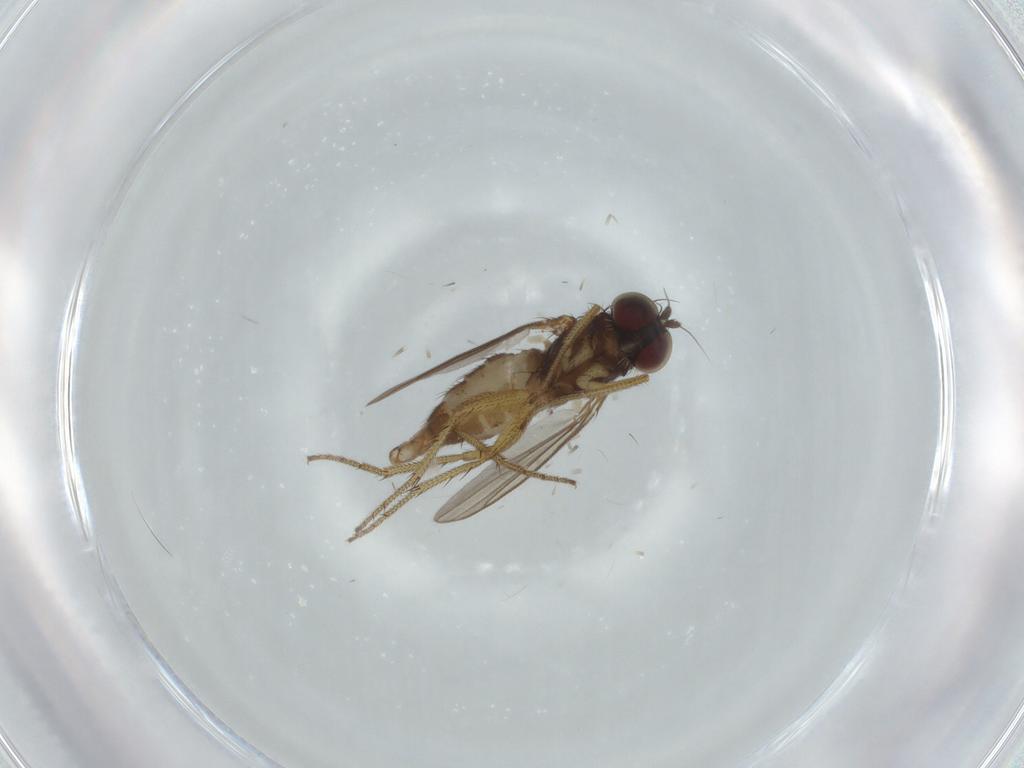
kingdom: Animalia
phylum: Arthropoda
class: Insecta
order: Diptera
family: Dolichopodidae
